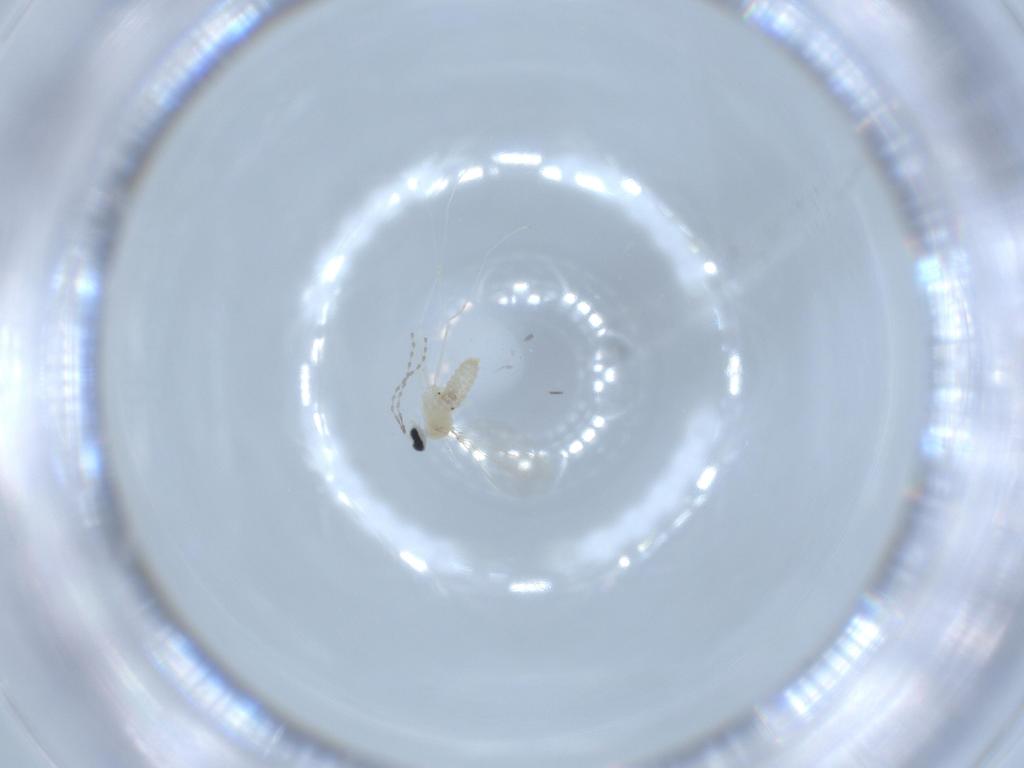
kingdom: Animalia
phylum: Arthropoda
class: Insecta
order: Diptera
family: Cecidomyiidae
